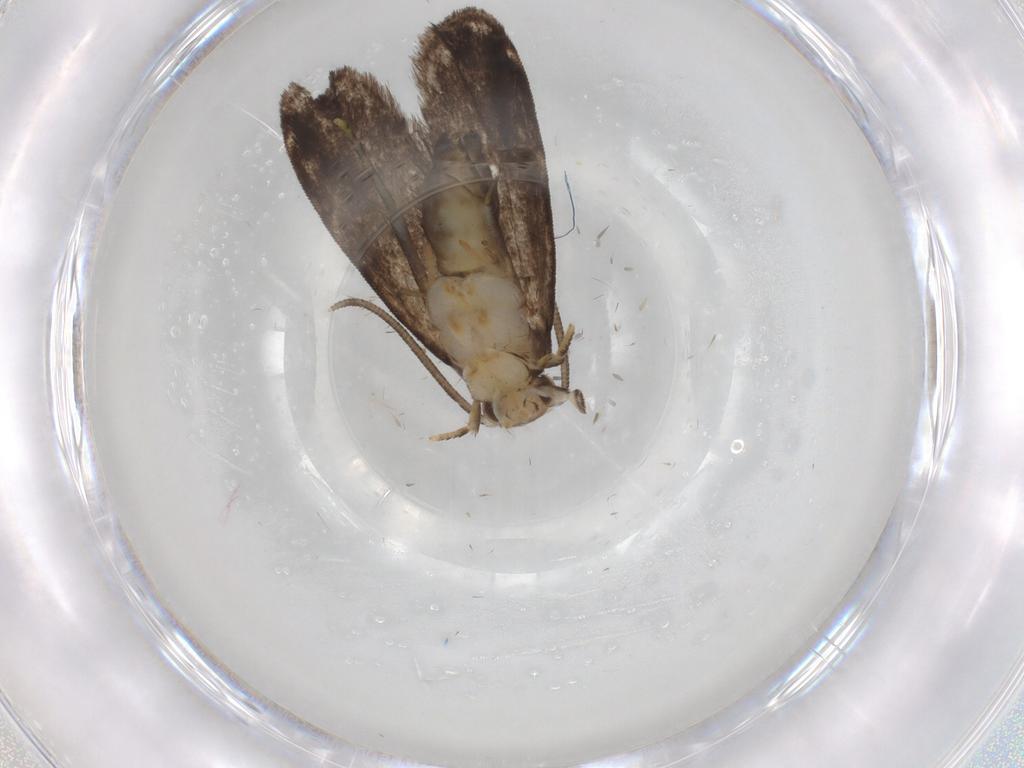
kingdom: Animalia
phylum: Arthropoda
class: Insecta
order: Lepidoptera
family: Dryadaulidae
